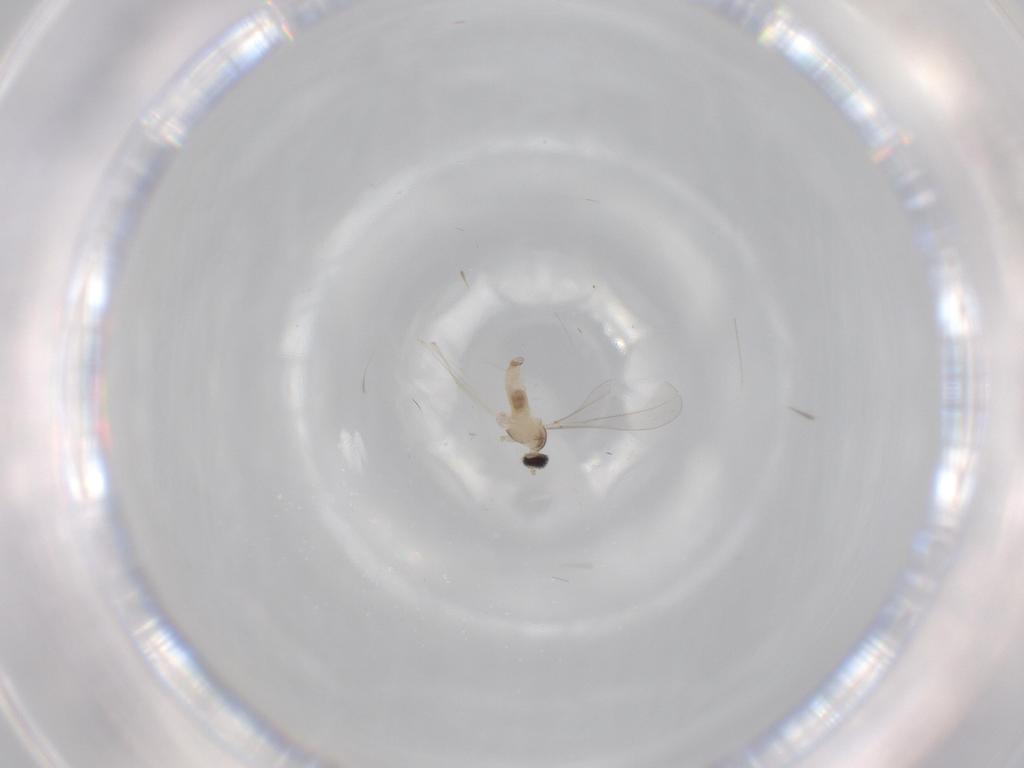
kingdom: Animalia
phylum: Arthropoda
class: Insecta
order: Diptera
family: Cecidomyiidae
